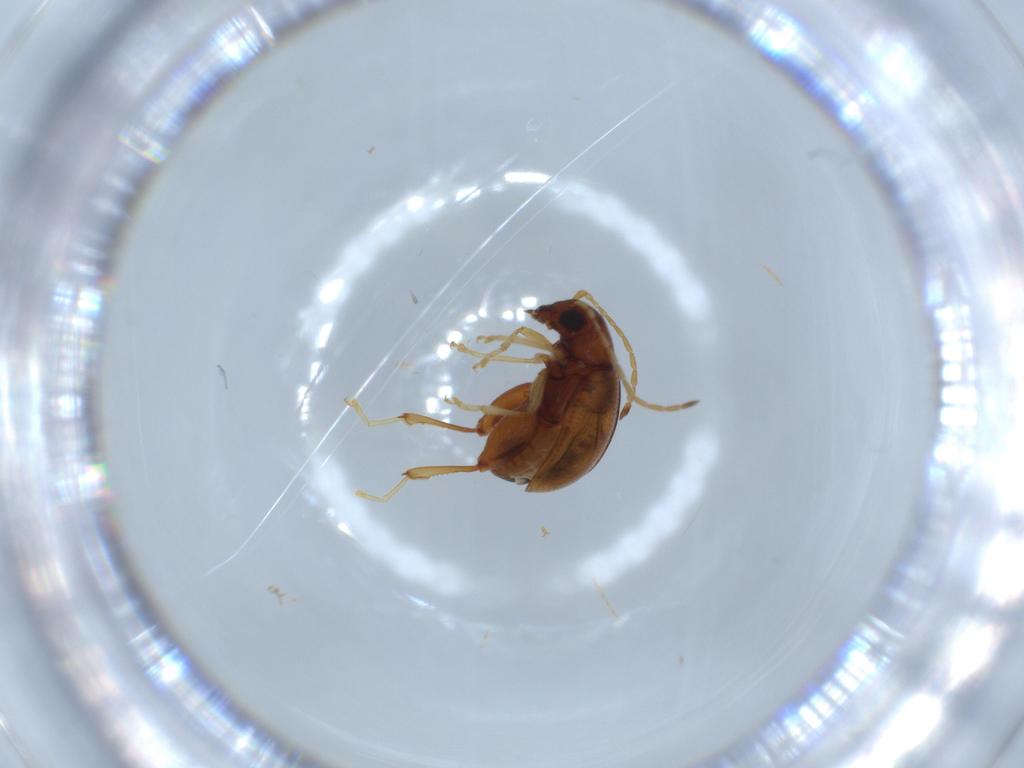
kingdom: Animalia
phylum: Arthropoda
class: Insecta
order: Coleoptera
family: Chrysomelidae
